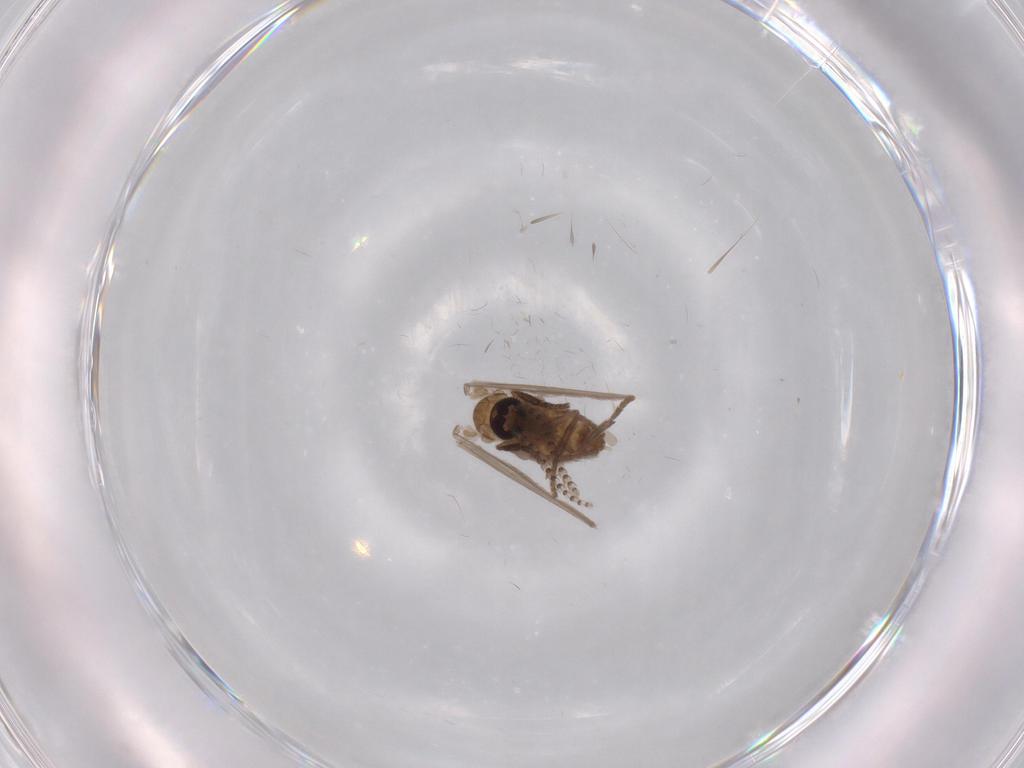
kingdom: Animalia
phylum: Arthropoda
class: Insecta
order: Diptera
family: Psychodidae
